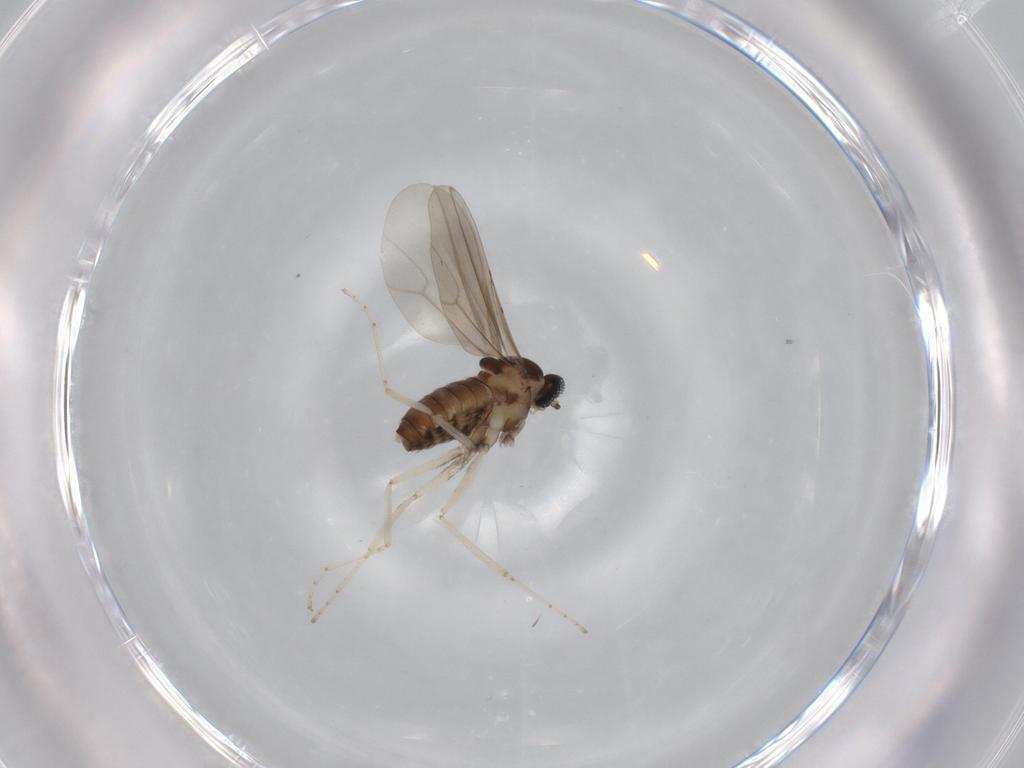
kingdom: Animalia
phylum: Arthropoda
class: Insecta
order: Diptera
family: Cecidomyiidae
